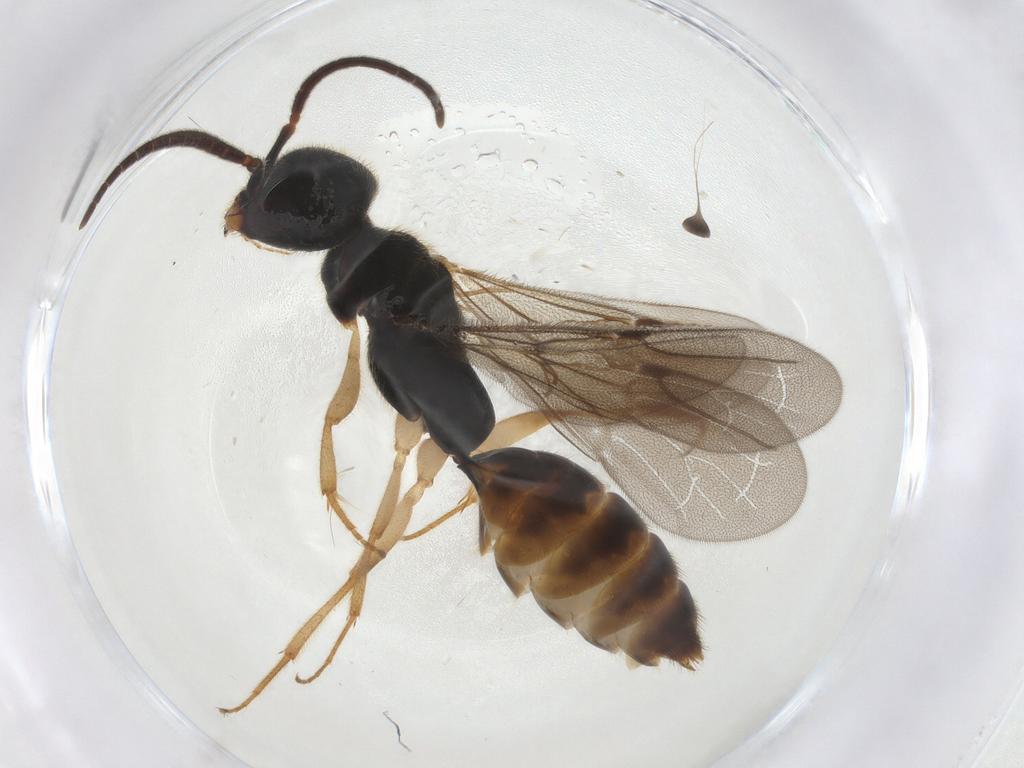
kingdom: Animalia
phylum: Arthropoda
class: Insecta
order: Hymenoptera
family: Bethylidae
